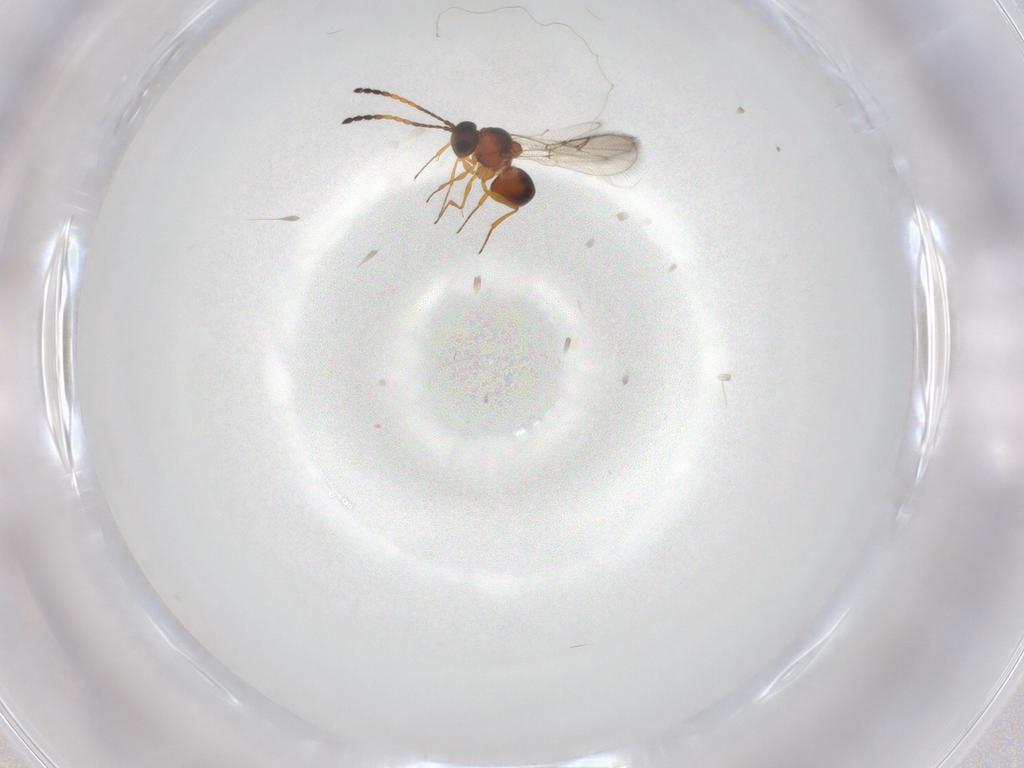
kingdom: Animalia
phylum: Arthropoda
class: Insecta
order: Hymenoptera
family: Figitidae
